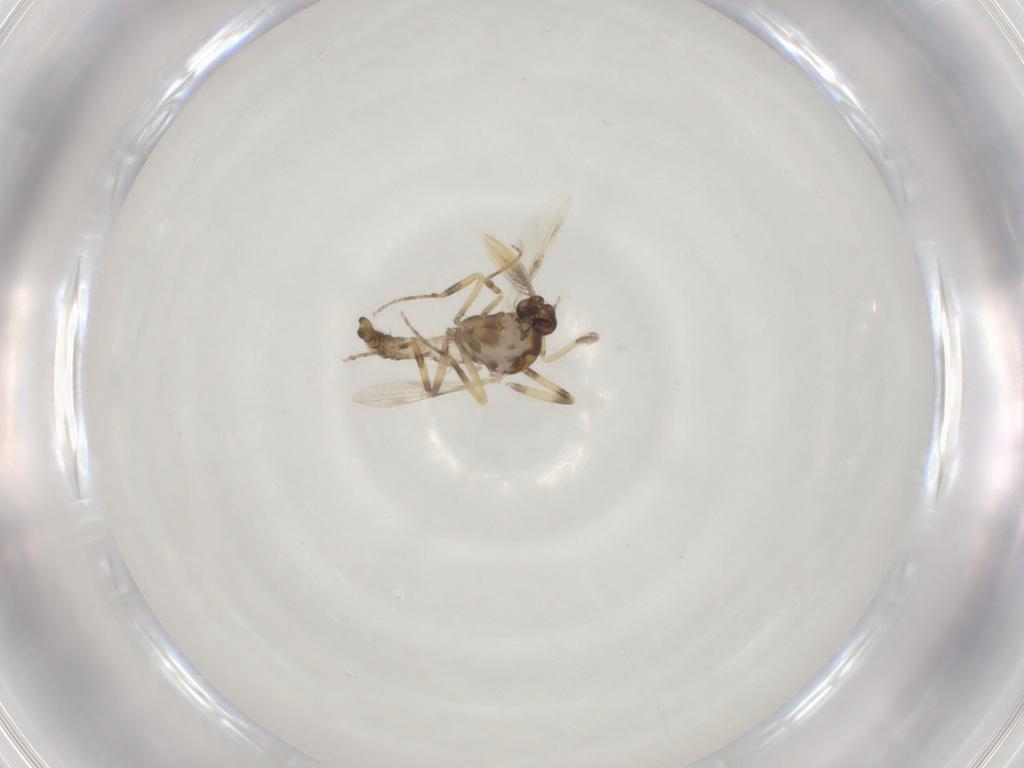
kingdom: Animalia
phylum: Arthropoda
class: Insecta
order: Diptera
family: Ceratopogonidae
